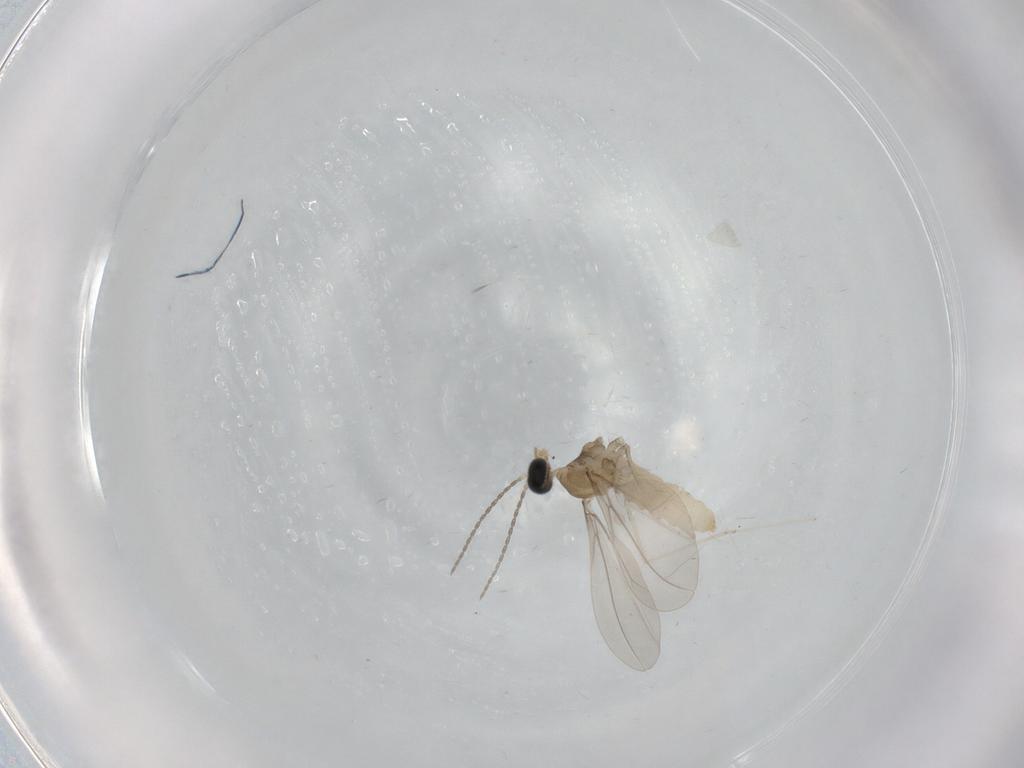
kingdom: Animalia
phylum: Arthropoda
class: Insecta
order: Diptera
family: Cecidomyiidae
